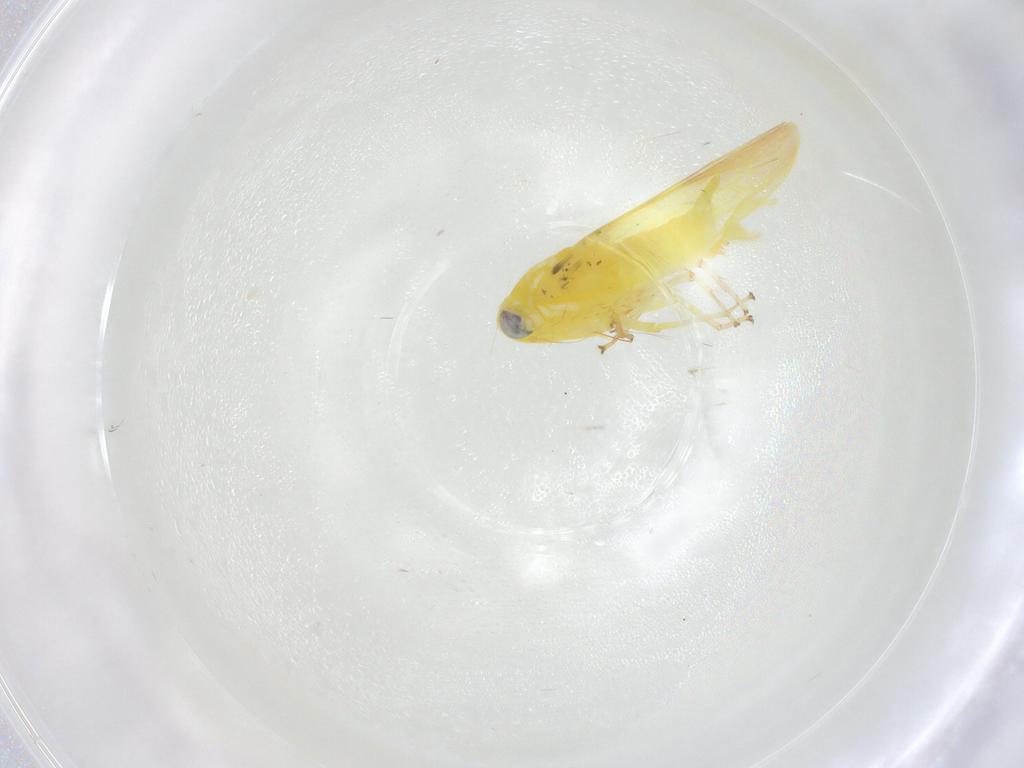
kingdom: Animalia
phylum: Arthropoda
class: Insecta
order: Hemiptera
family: Cicadellidae
